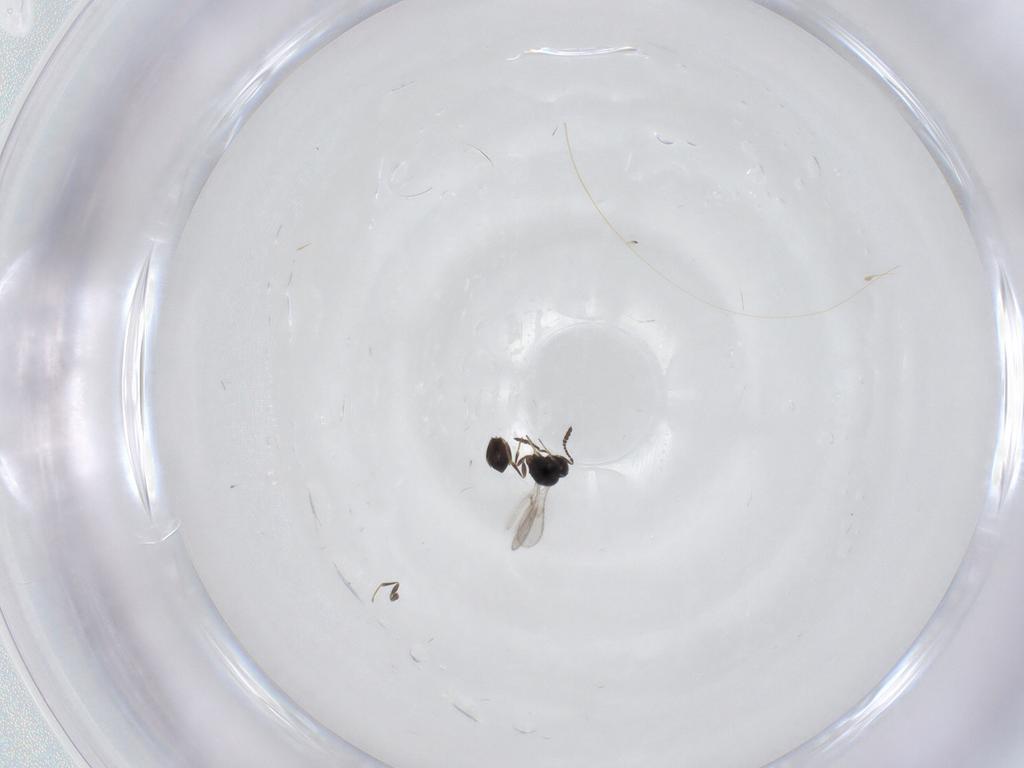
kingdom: Animalia
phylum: Arthropoda
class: Insecta
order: Hymenoptera
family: Scelionidae
